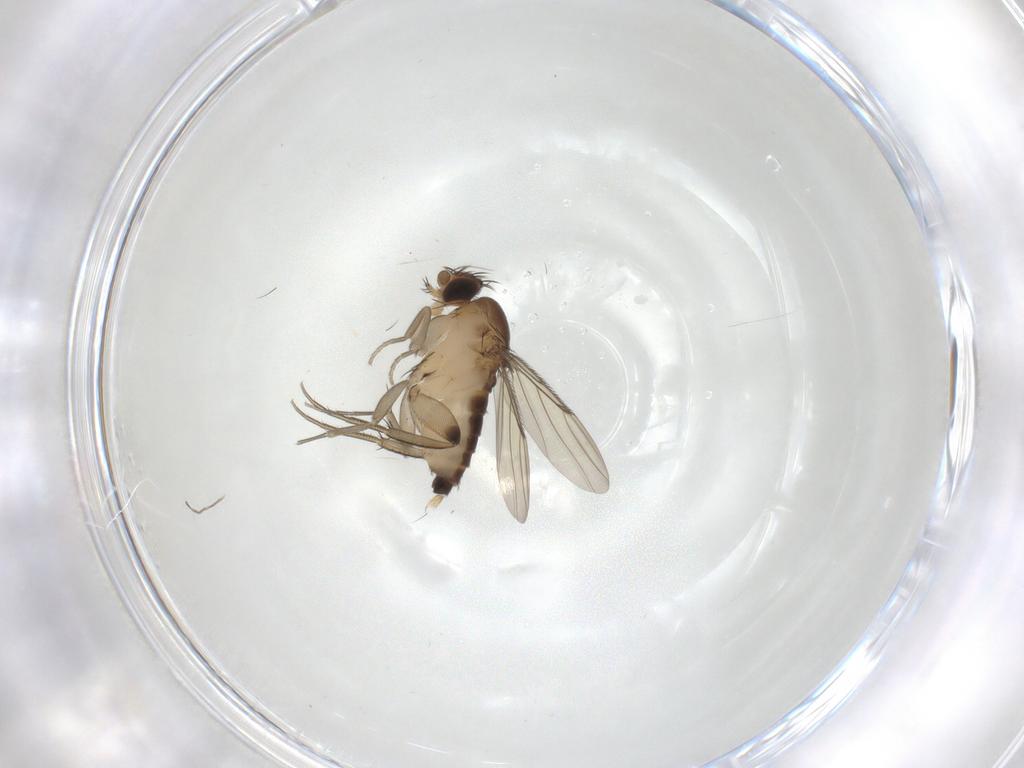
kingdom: Animalia
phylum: Arthropoda
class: Insecta
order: Diptera
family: Phoridae
